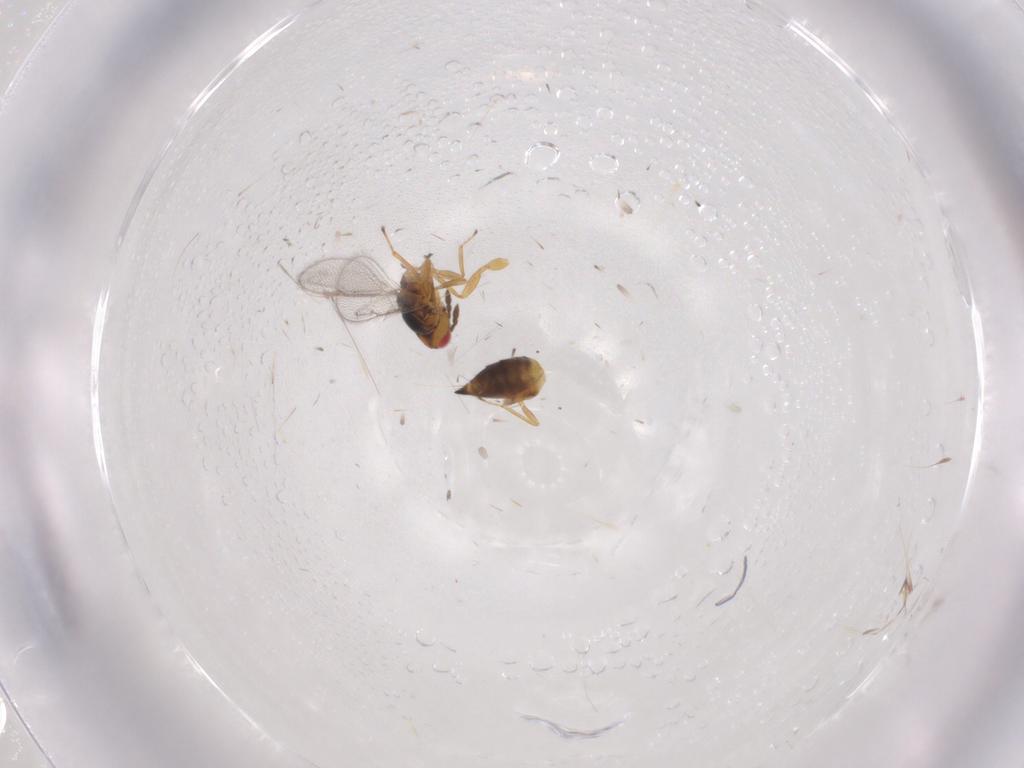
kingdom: Animalia
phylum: Arthropoda
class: Insecta
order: Hymenoptera
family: Eulophidae
